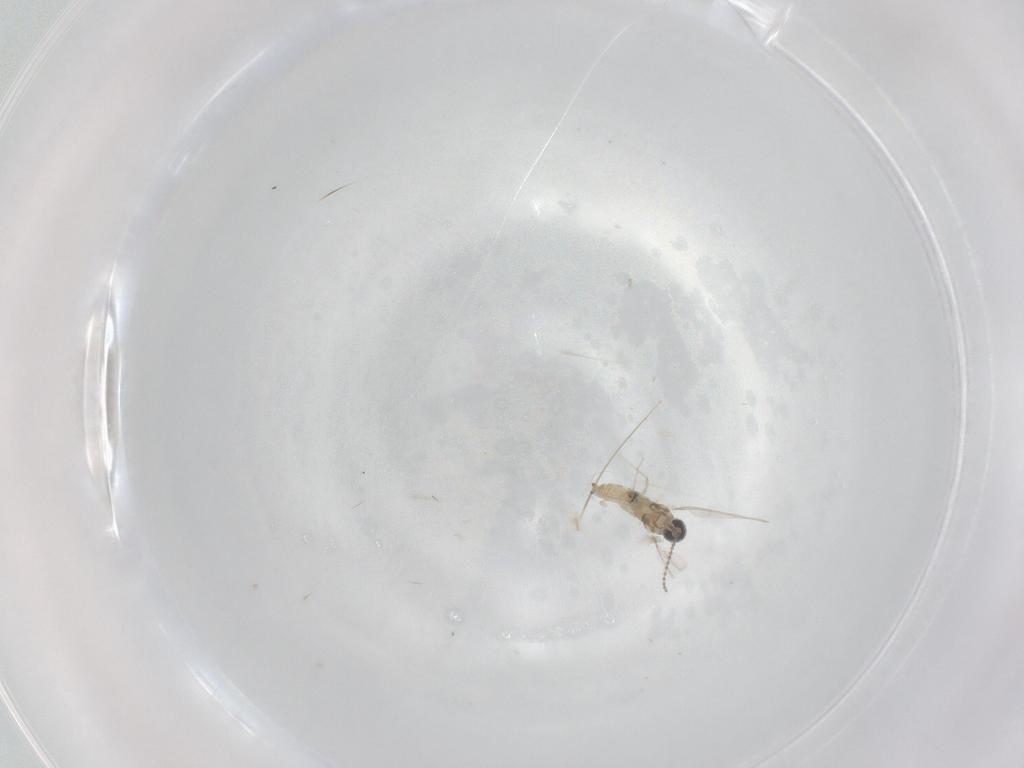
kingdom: Animalia
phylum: Arthropoda
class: Insecta
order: Diptera
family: Cecidomyiidae
